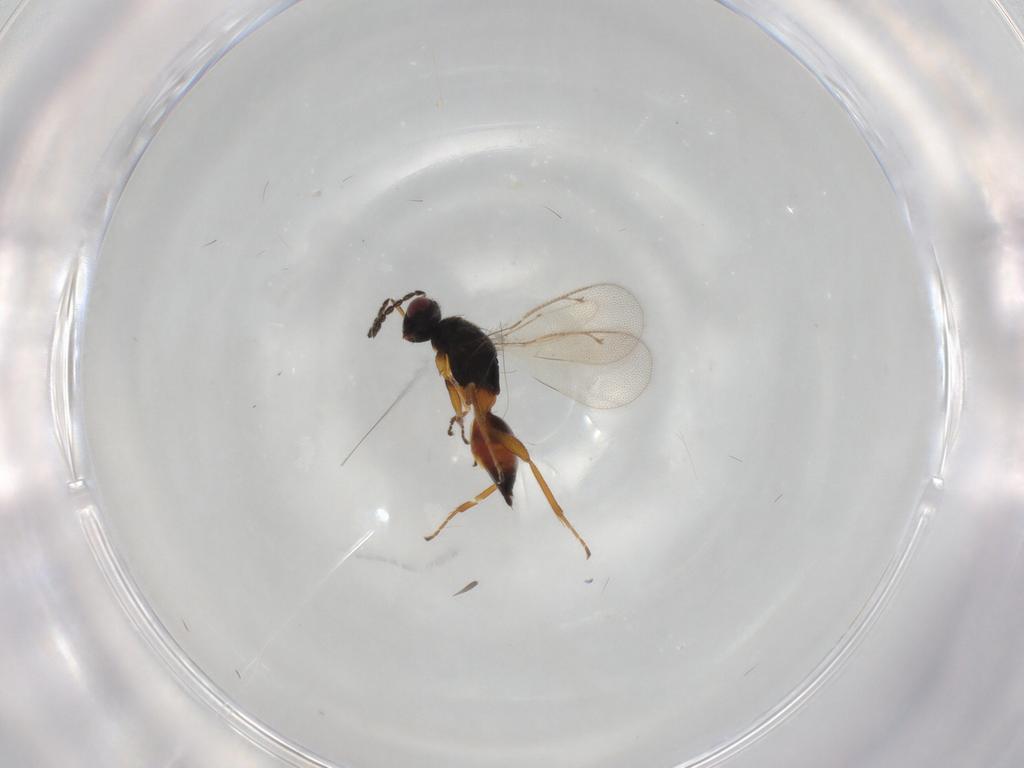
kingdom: Animalia
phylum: Arthropoda
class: Insecta
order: Hymenoptera
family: Eulophidae
